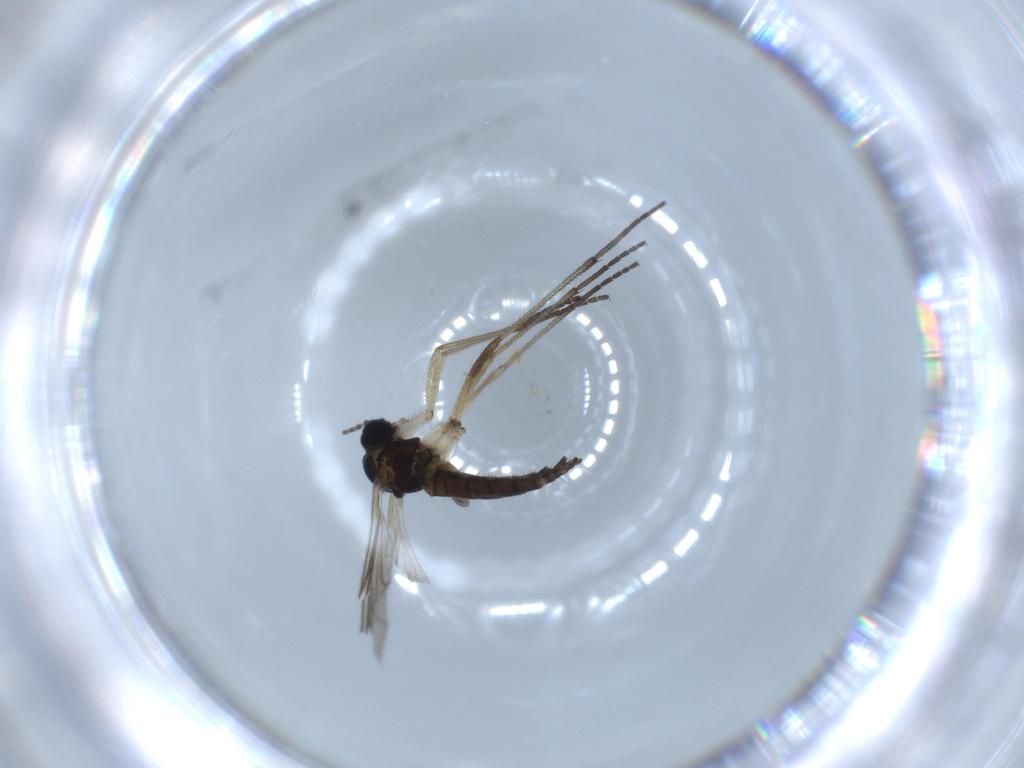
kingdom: Animalia
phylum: Arthropoda
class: Insecta
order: Diptera
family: Sciaridae
